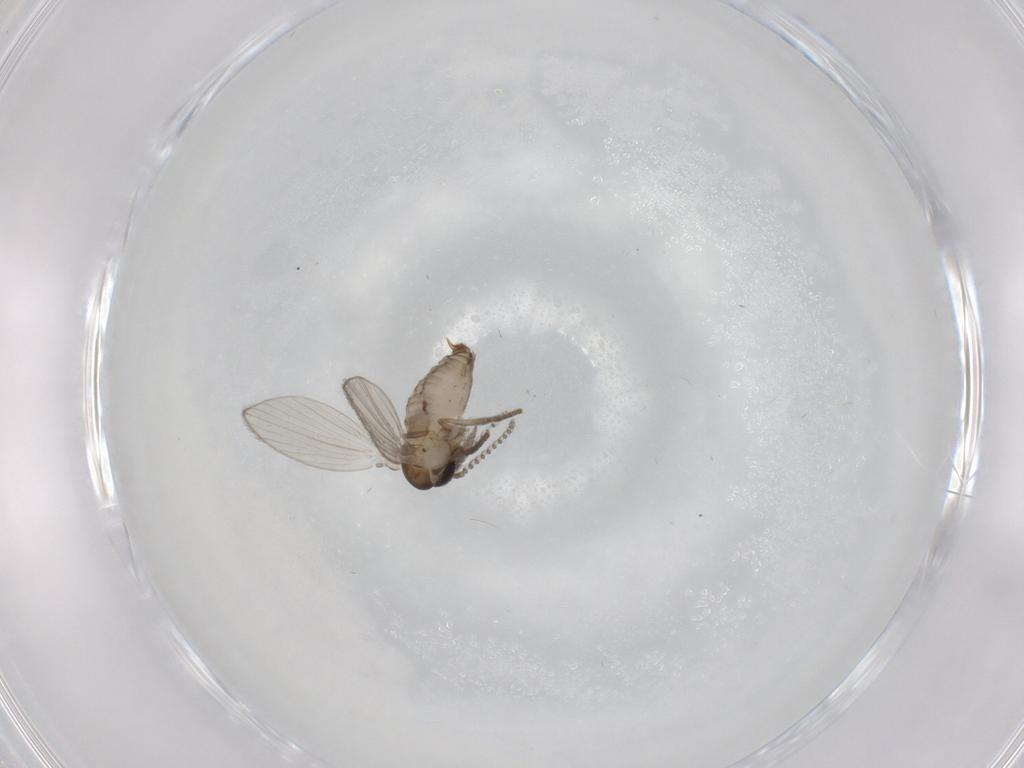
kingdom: Animalia
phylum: Arthropoda
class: Insecta
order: Diptera
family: Psychodidae
